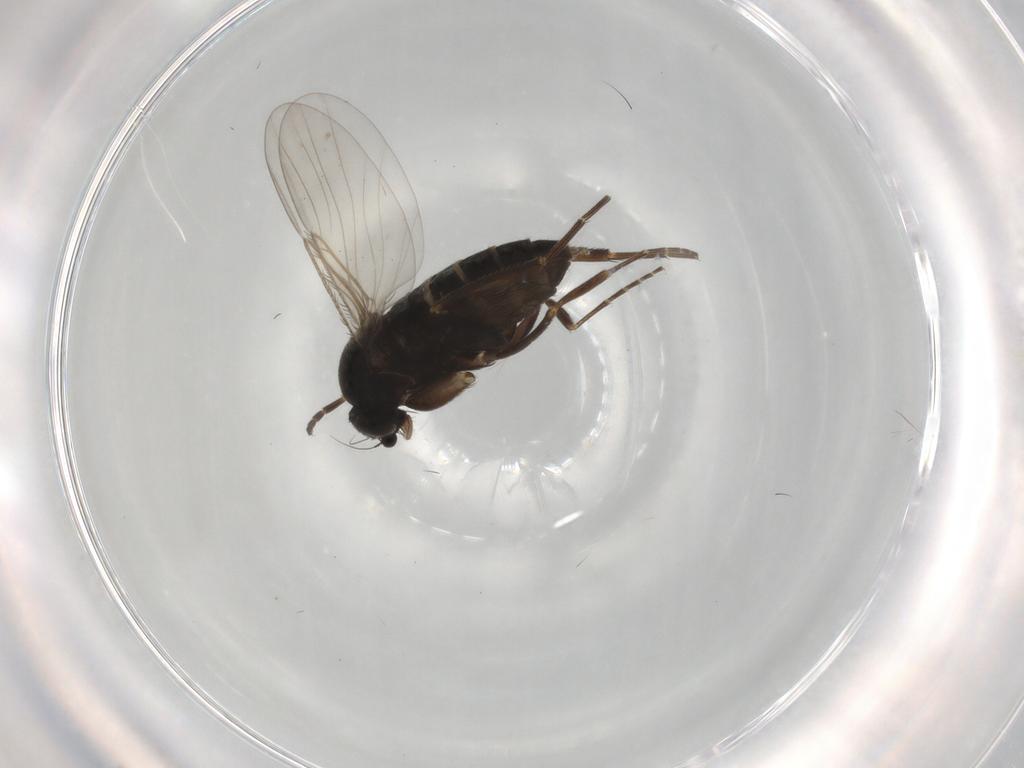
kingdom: Animalia
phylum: Arthropoda
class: Insecta
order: Diptera
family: Phoridae
